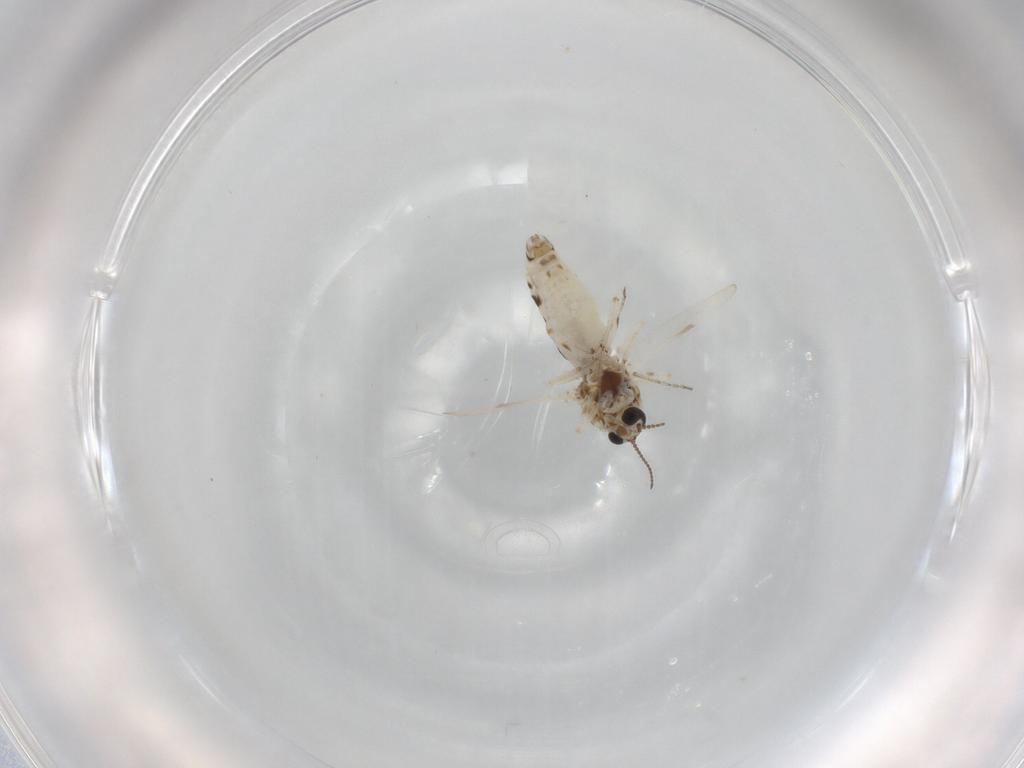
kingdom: Animalia
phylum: Arthropoda
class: Insecta
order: Diptera
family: Ceratopogonidae
